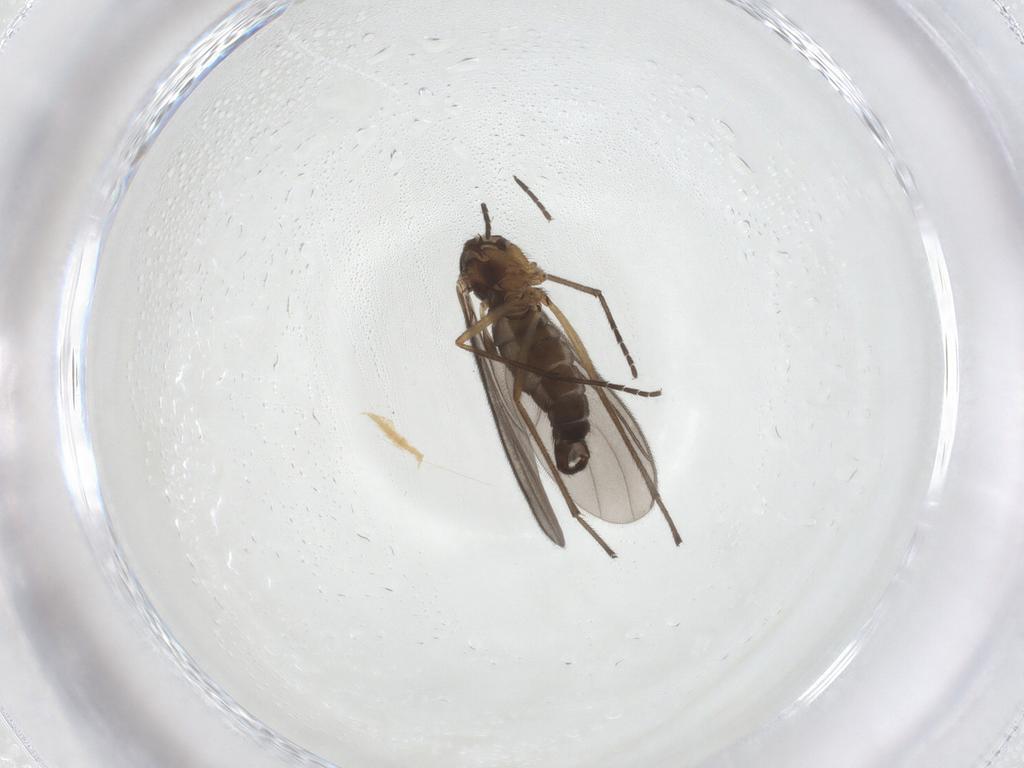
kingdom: Animalia
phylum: Arthropoda
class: Insecta
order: Diptera
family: Sciaridae
